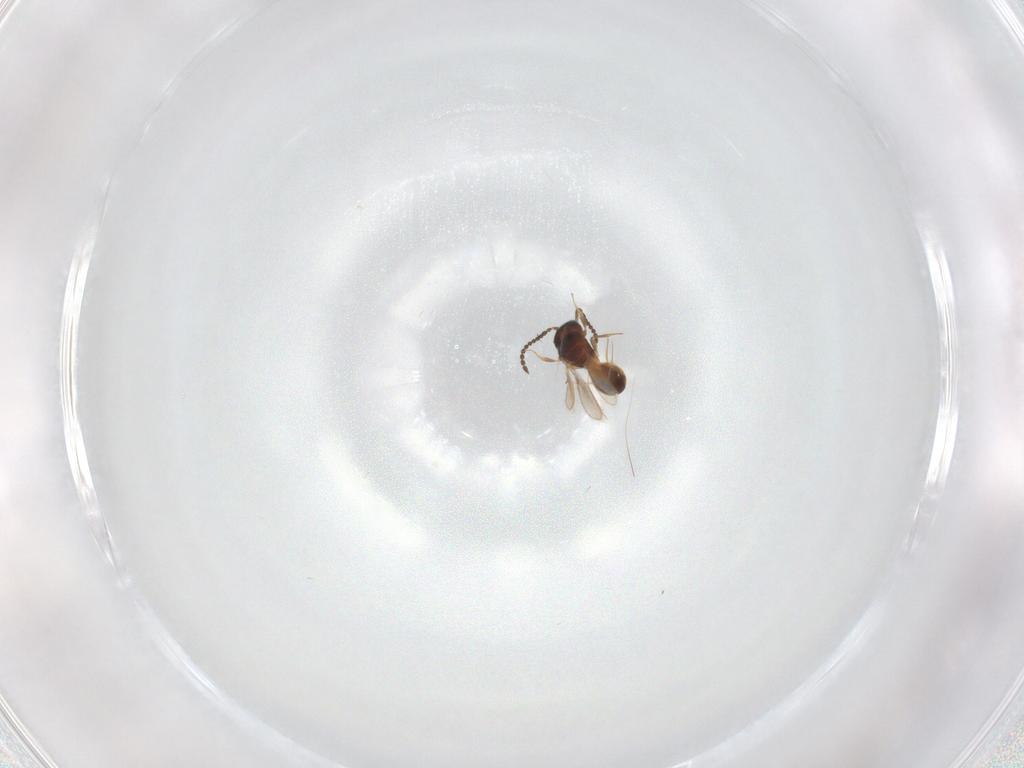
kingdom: Animalia
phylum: Arthropoda
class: Insecta
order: Hymenoptera
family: Scelionidae
